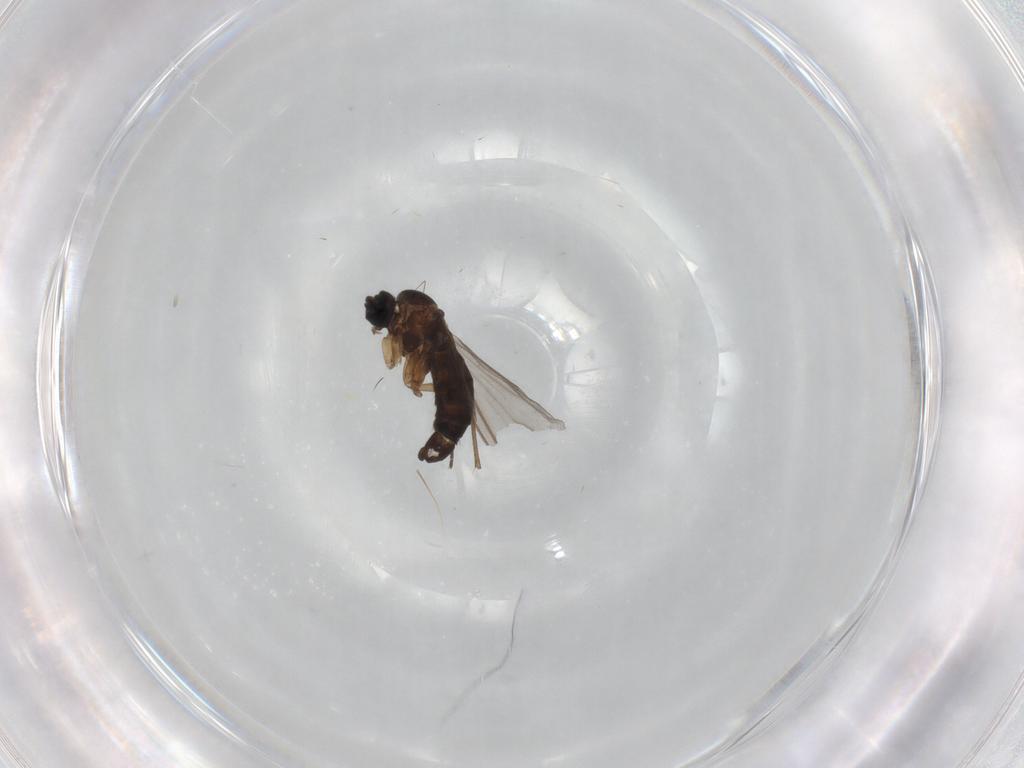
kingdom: Animalia
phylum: Arthropoda
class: Insecta
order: Diptera
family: Sciaridae
